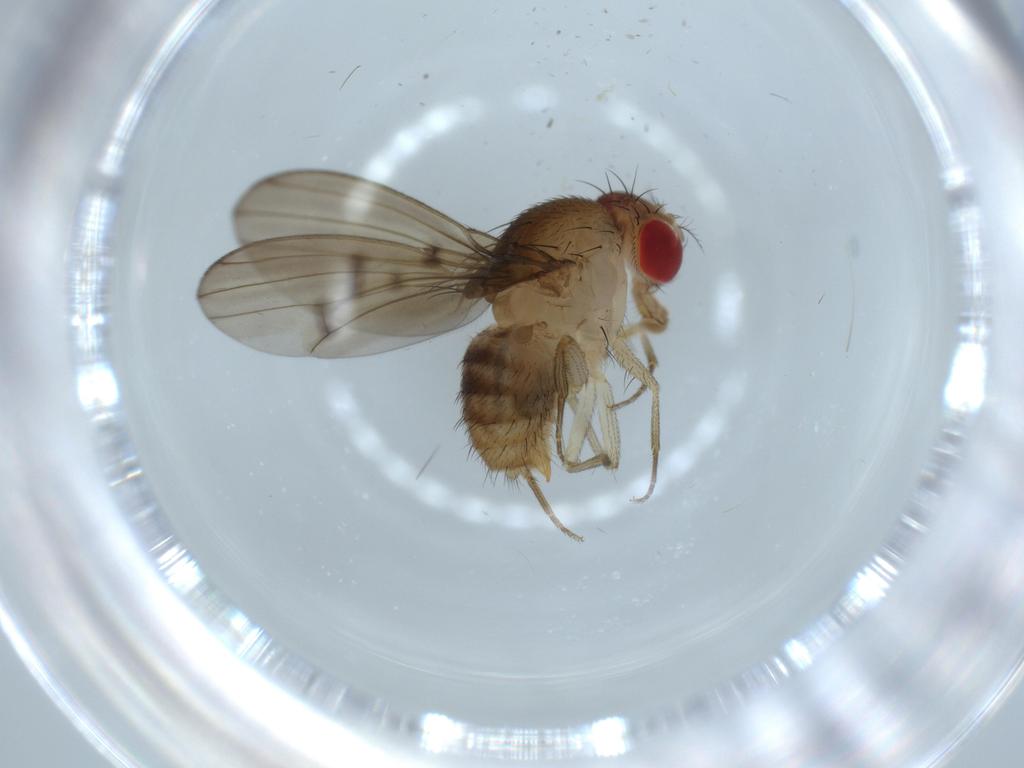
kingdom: Animalia
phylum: Arthropoda
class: Insecta
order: Diptera
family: Drosophilidae
